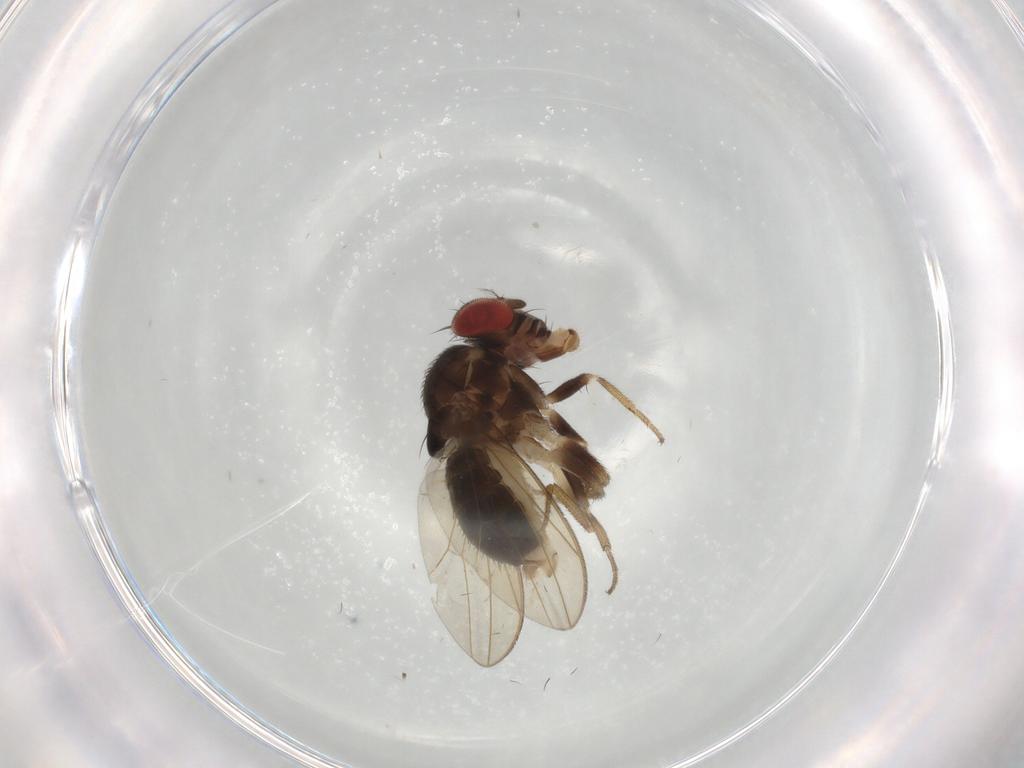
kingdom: Animalia
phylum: Arthropoda
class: Insecta
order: Diptera
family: Drosophilidae
